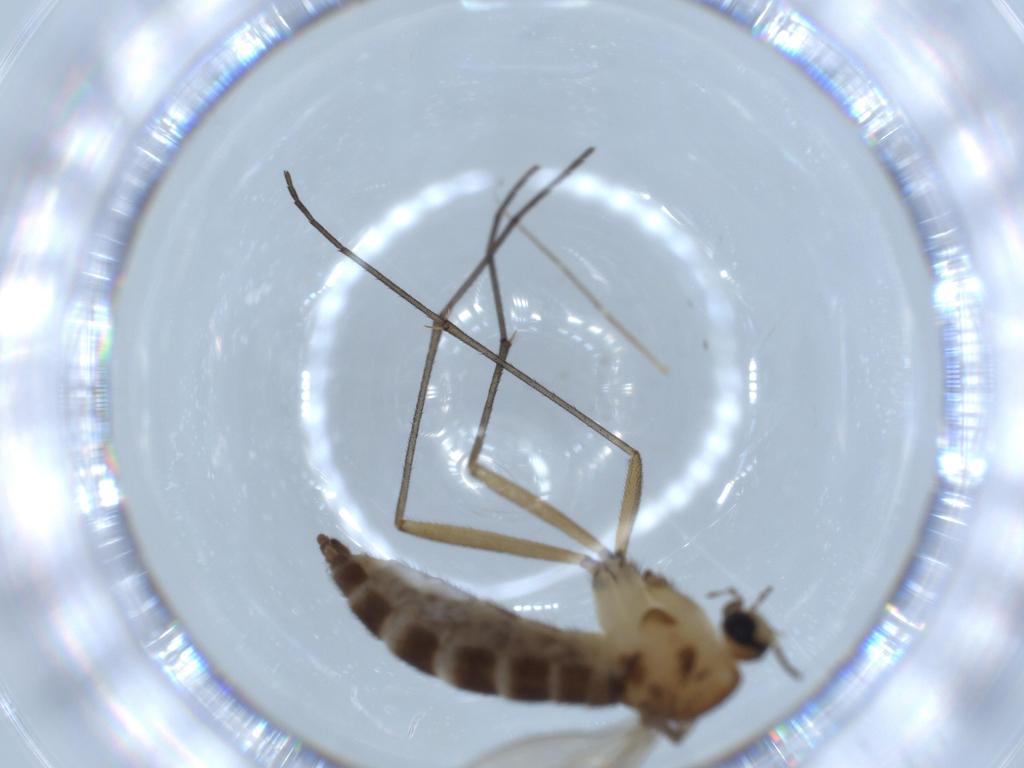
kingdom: Animalia
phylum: Arthropoda
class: Insecta
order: Diptera
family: Sciaridae
